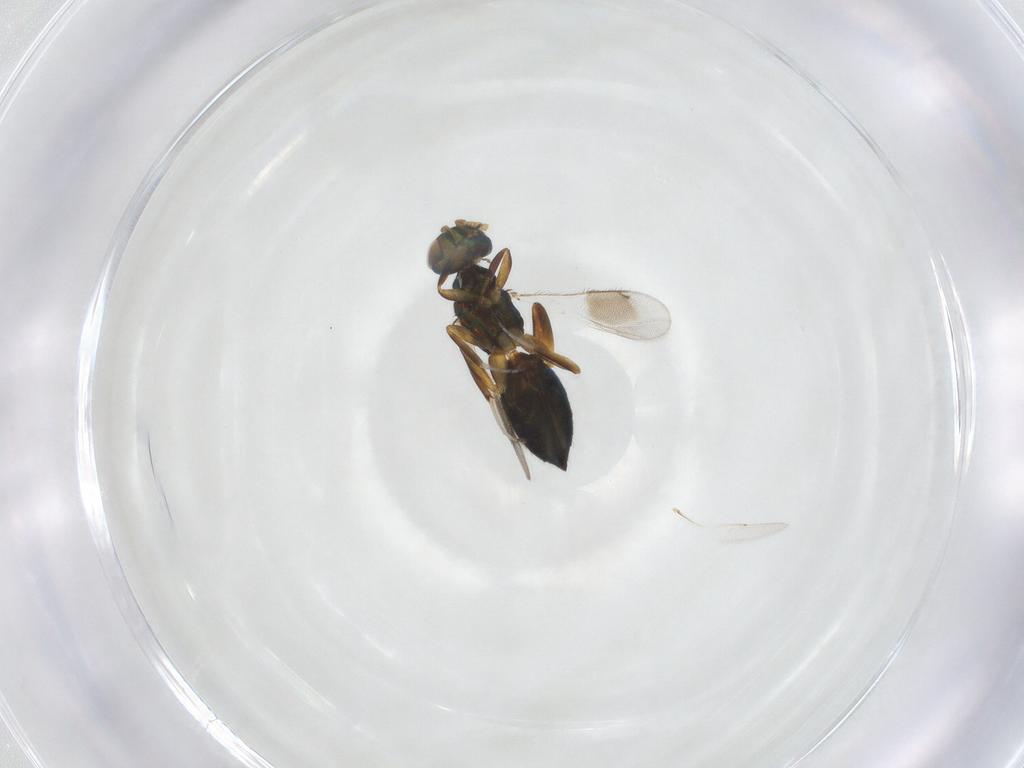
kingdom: Animalia
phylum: Arthropoda
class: Insecta
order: Hymenoptera
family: Cleonyminae
